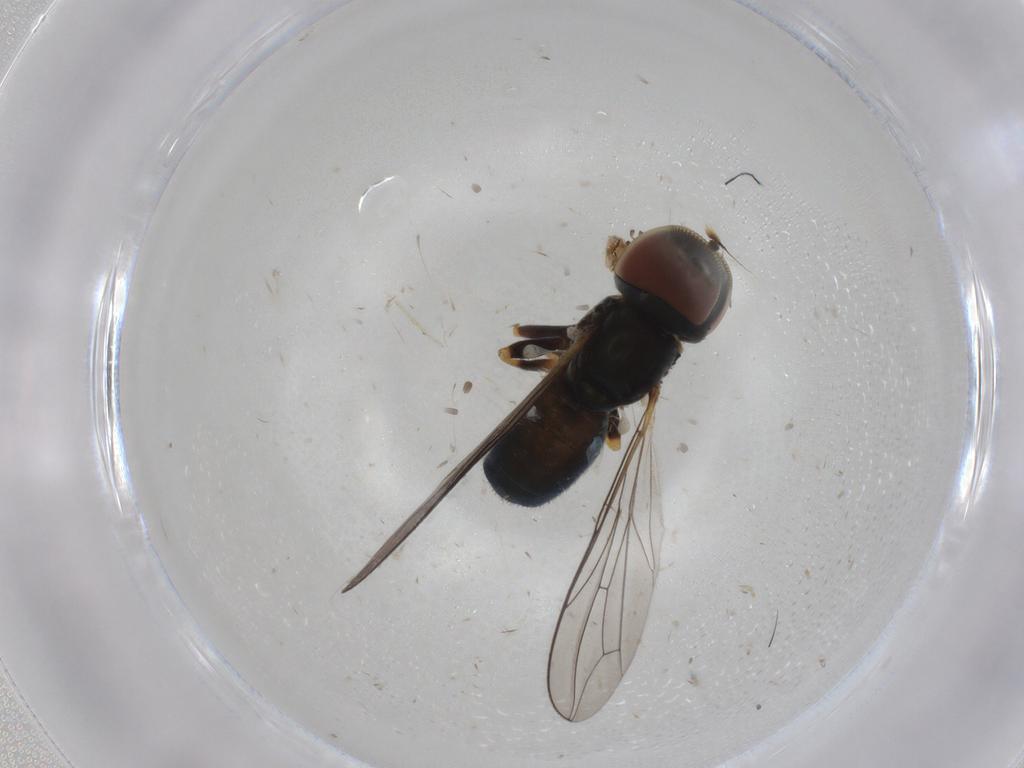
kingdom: Animalia
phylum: Arthropoda
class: Insecta
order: Diptera
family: Pipunculidae
